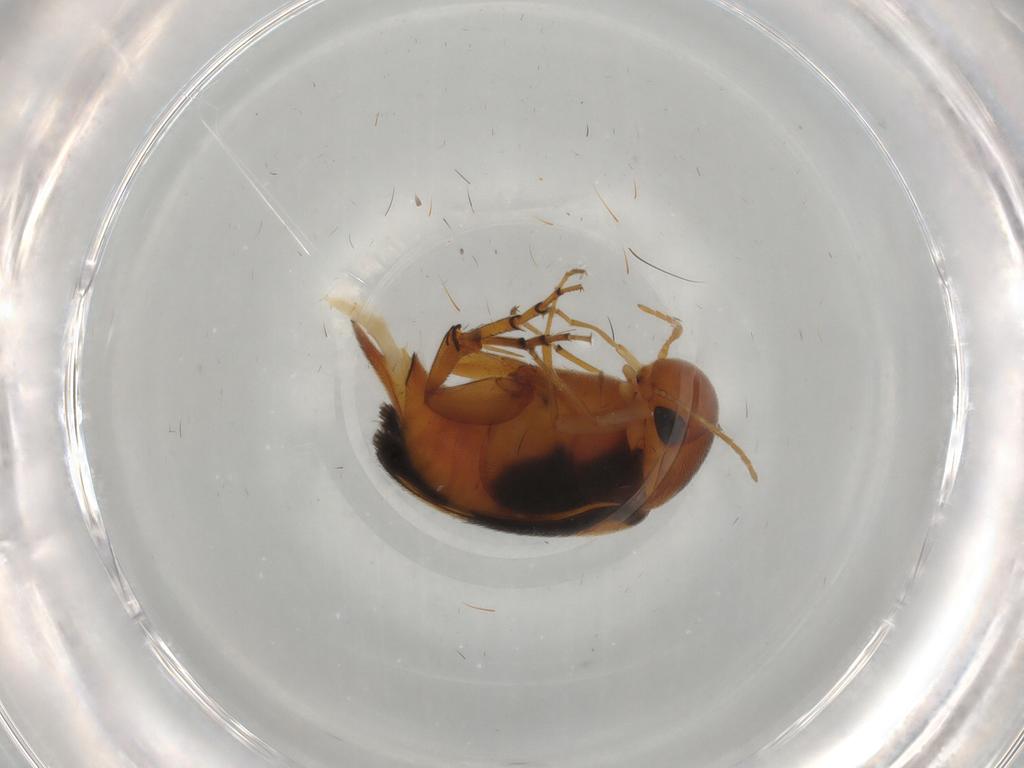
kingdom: Animalia
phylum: Arthropoda
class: Insecta
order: Coleoptera
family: Mordellidae
